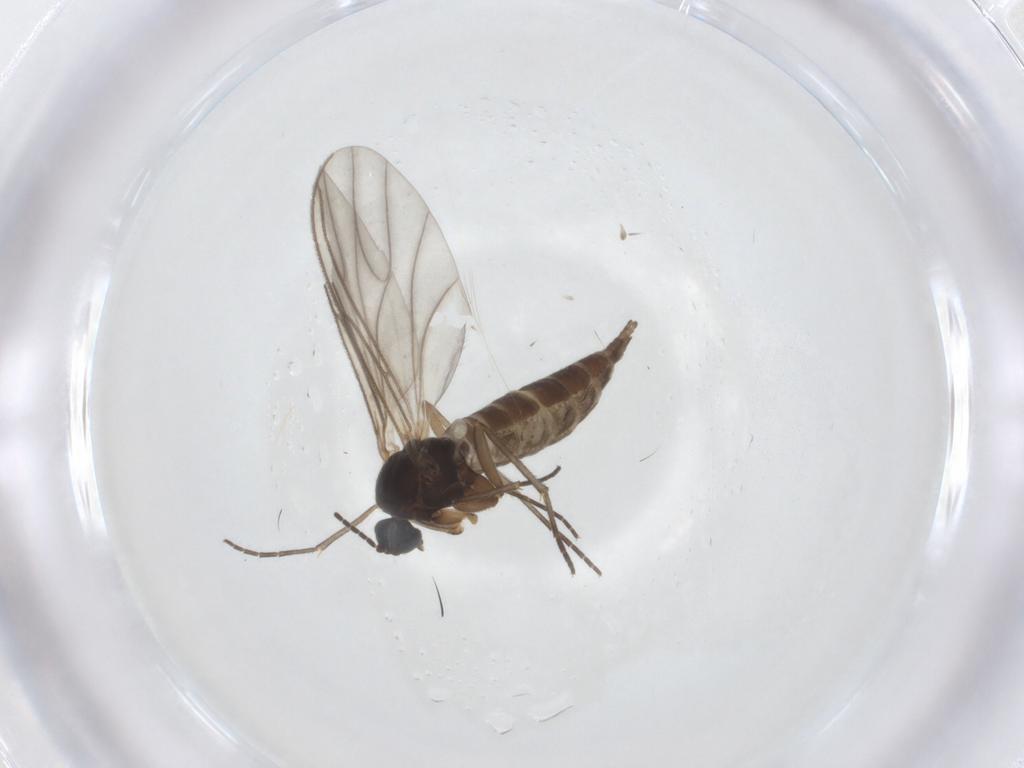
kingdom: Animalia
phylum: Arthropoda
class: Insecta
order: Diptera
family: Sciaridae
